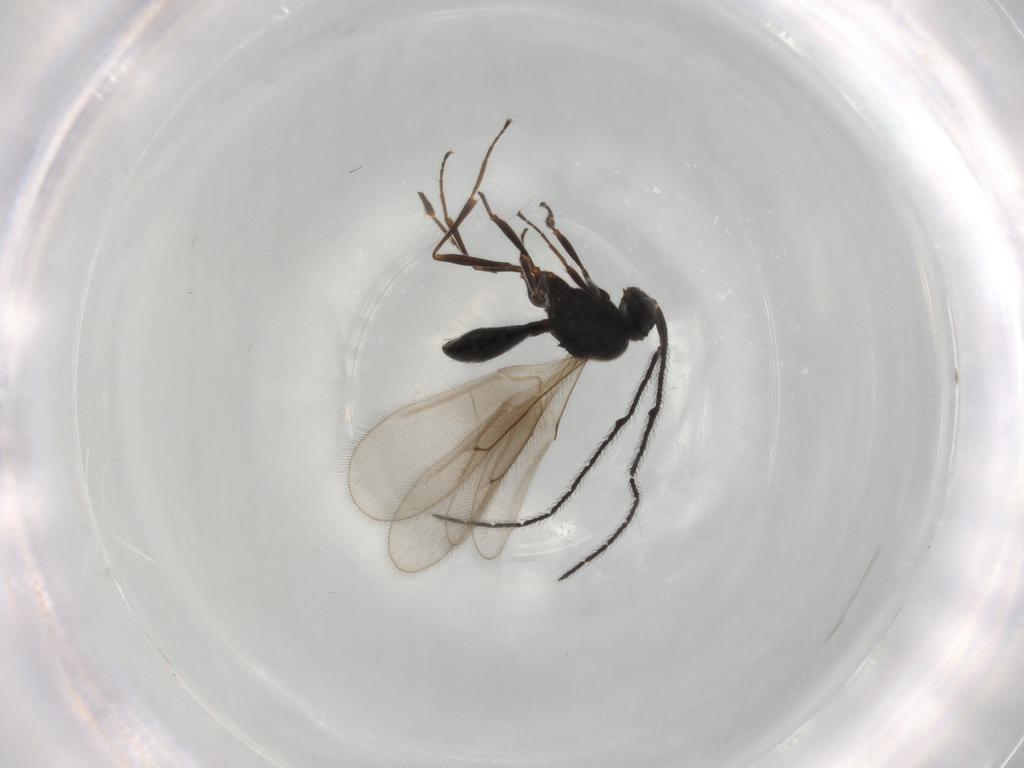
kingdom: Animalia
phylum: Arthropoda
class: Insecta
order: Hymenoptera
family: Scelionidae
